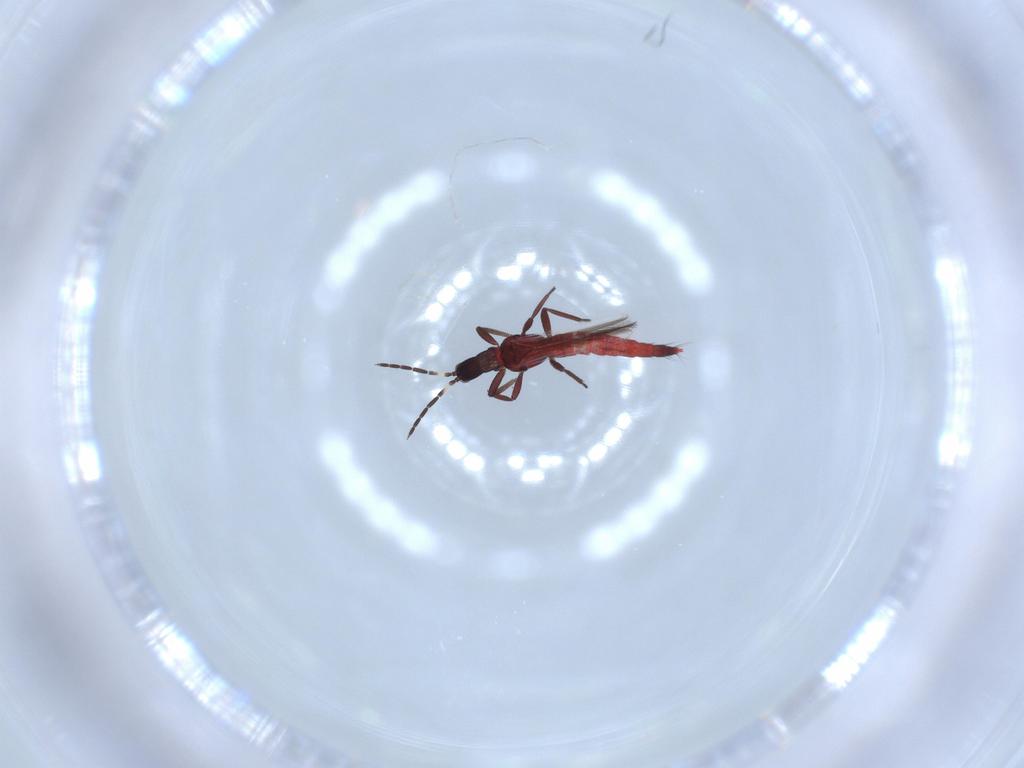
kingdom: Animalia
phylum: Arthropoda
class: Insecta
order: Thysanoptera
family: Aeolothripidae
